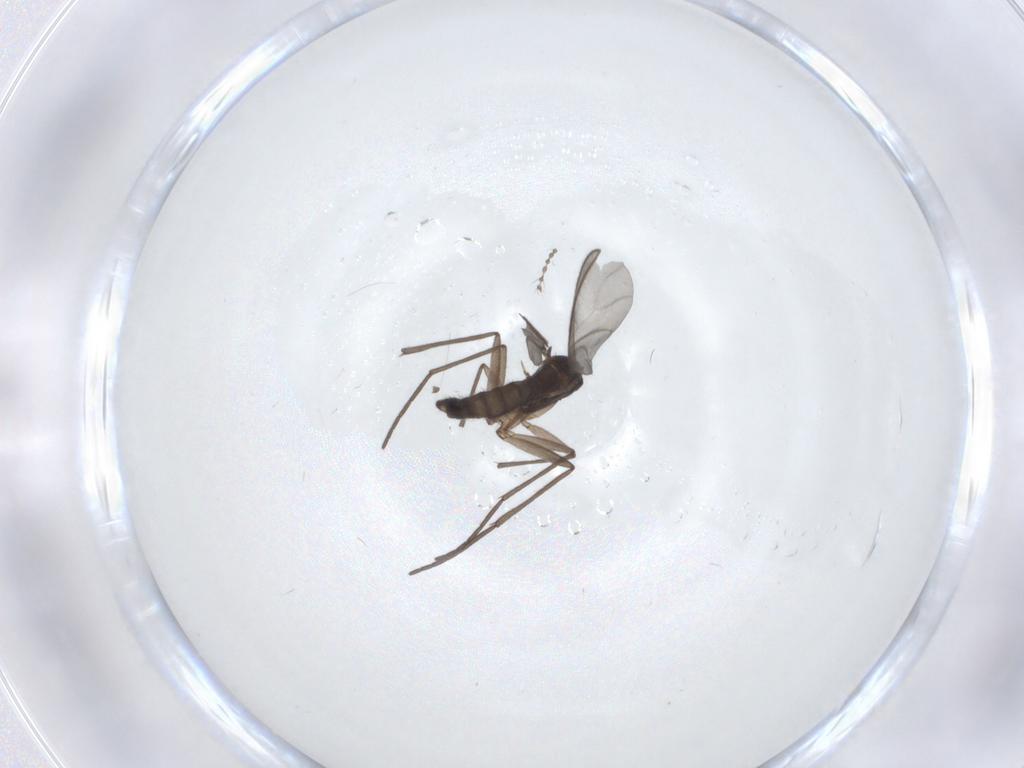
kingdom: Animalia
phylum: Arthropoda
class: Insecta
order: Diptera
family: Sciaridae
